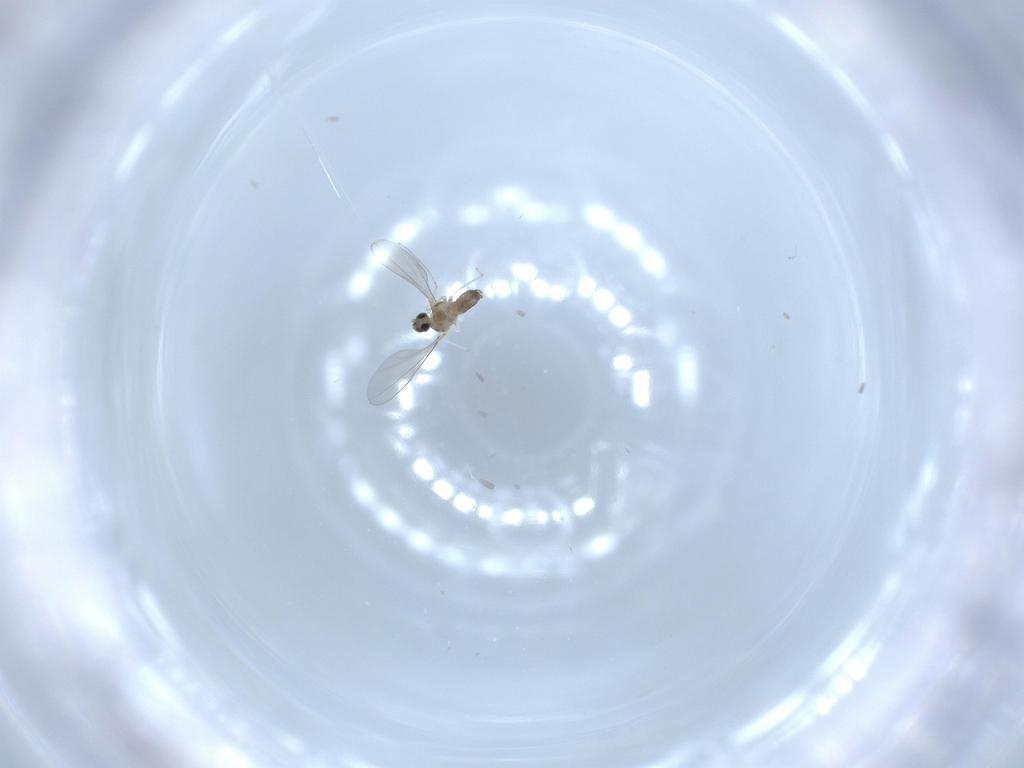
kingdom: Animalia
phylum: Arthropoda
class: Insecta
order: Diptera
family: Cecidomyiidae
